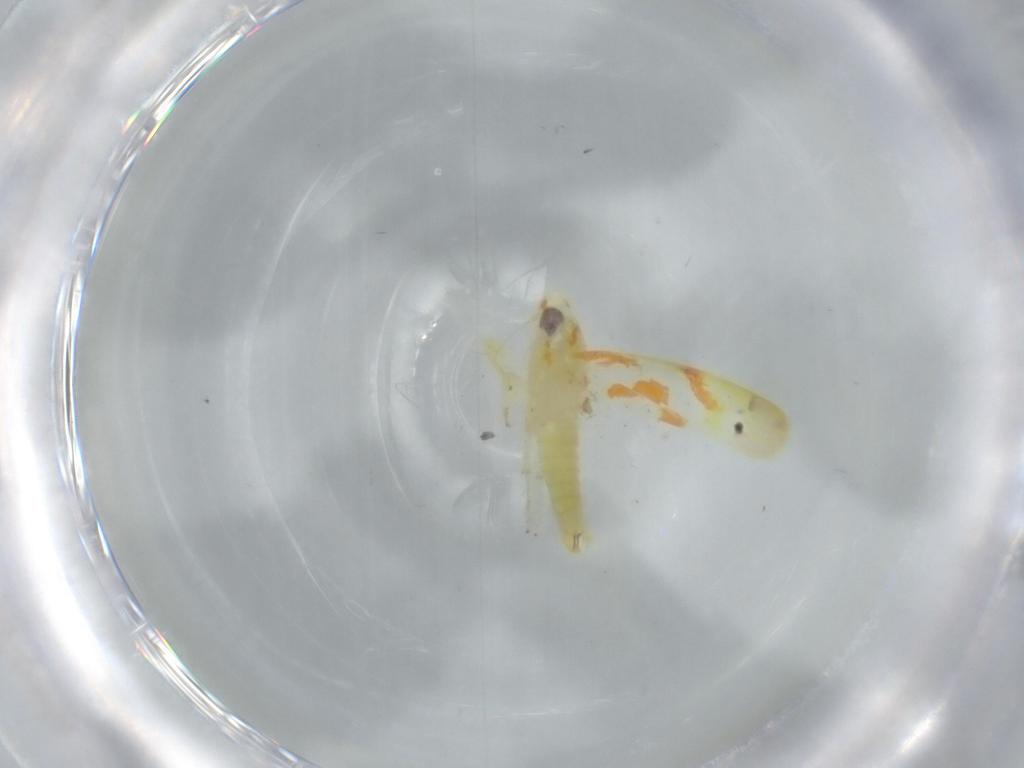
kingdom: Animalia
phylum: Arthropoda
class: Insecta
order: Hemiptera
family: Cicadellidae
